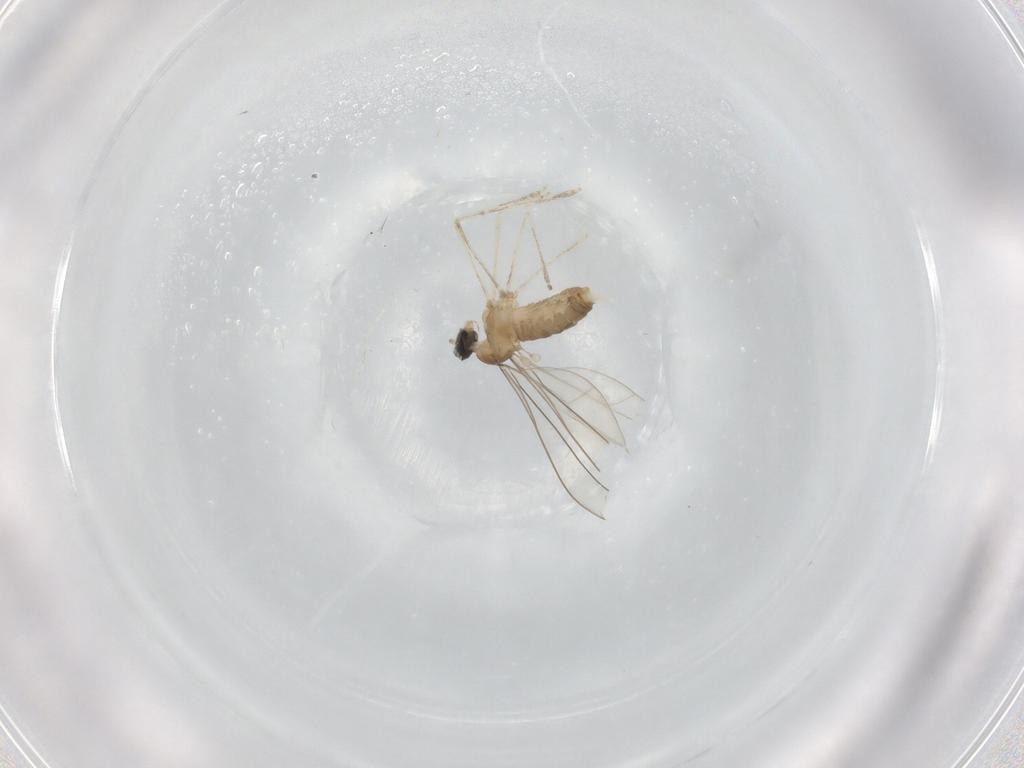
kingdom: Animalia
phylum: Arthropoda
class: Insecta
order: Diptera
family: Cecidomyiidae
